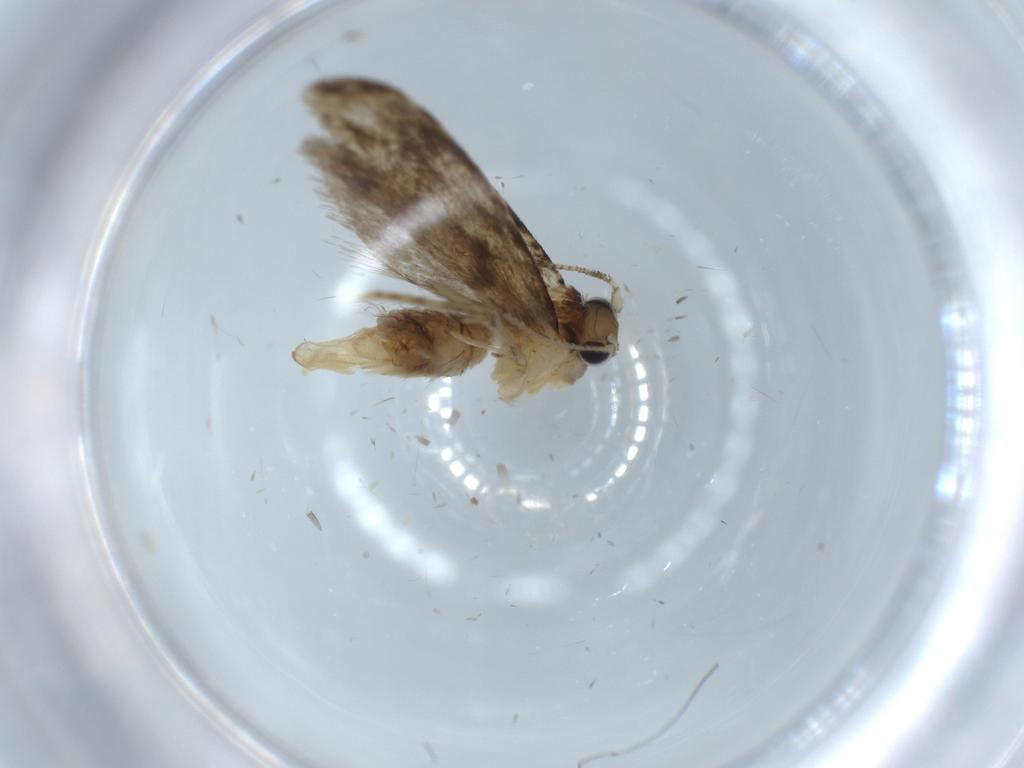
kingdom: Animalia
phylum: Arthropoda
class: Insecta
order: Lepidoptera
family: Tineidae
